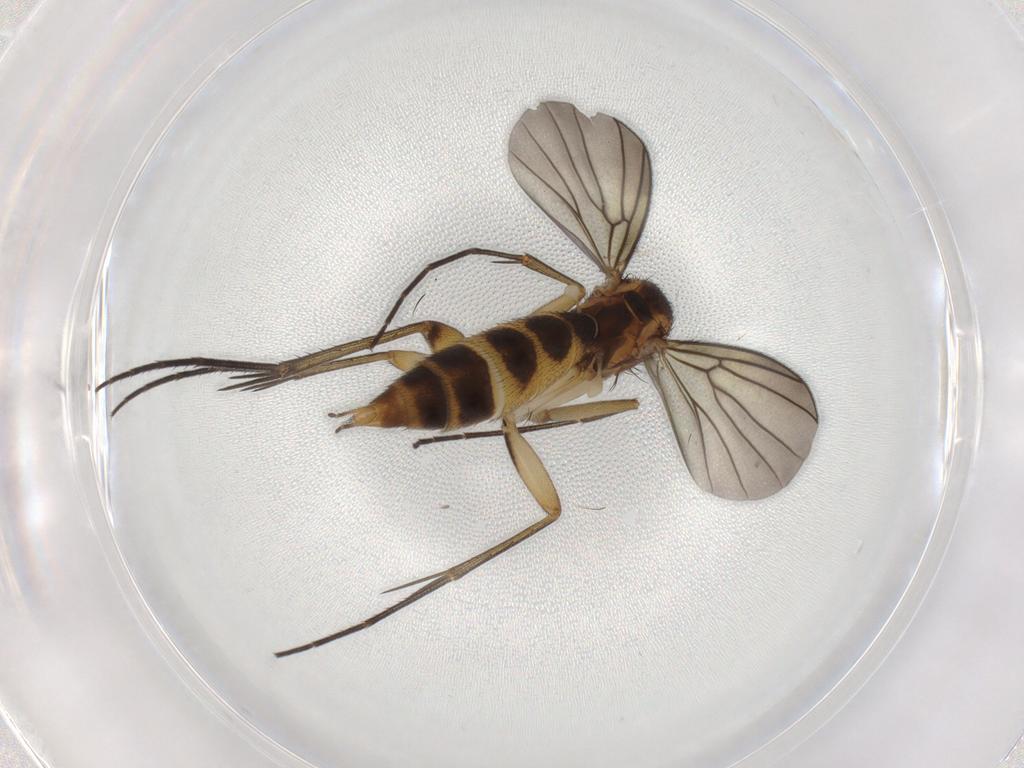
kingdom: Animalia
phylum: Arthropoda
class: Insecta
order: Diptera
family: Mycetophilidae
